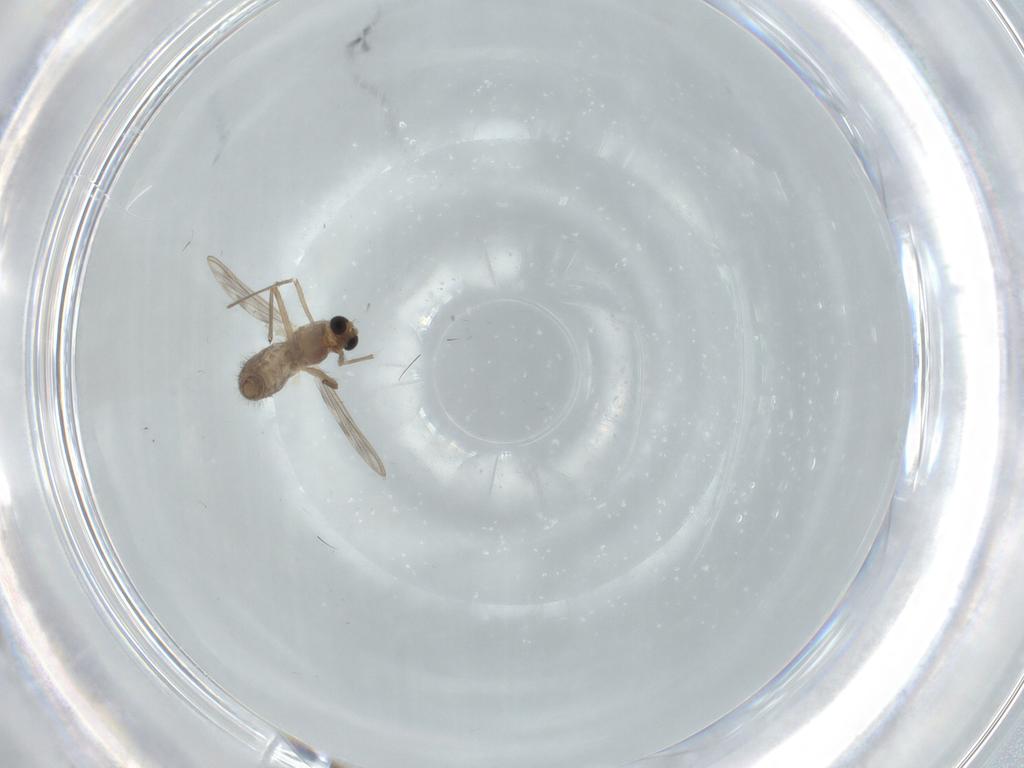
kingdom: Animalia
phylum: Arthropoda
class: Insecta
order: Diptera
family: Chironomidae
